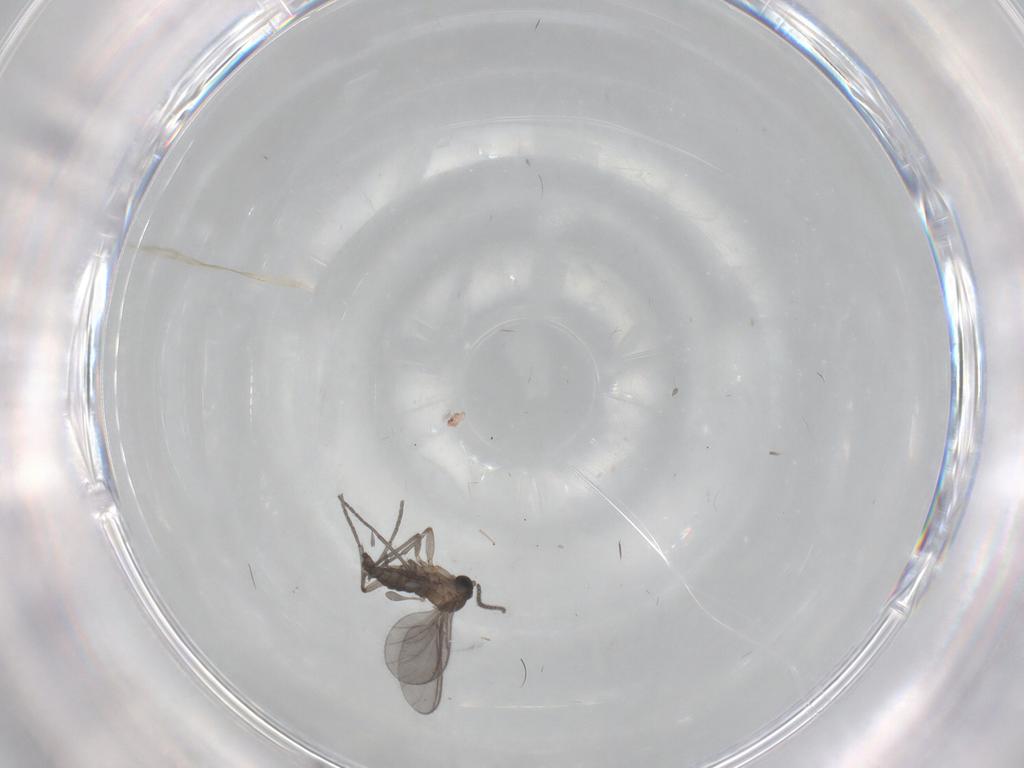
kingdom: Animalia
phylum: Arthropoda
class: Insecta
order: Diptera
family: Sciaridae
